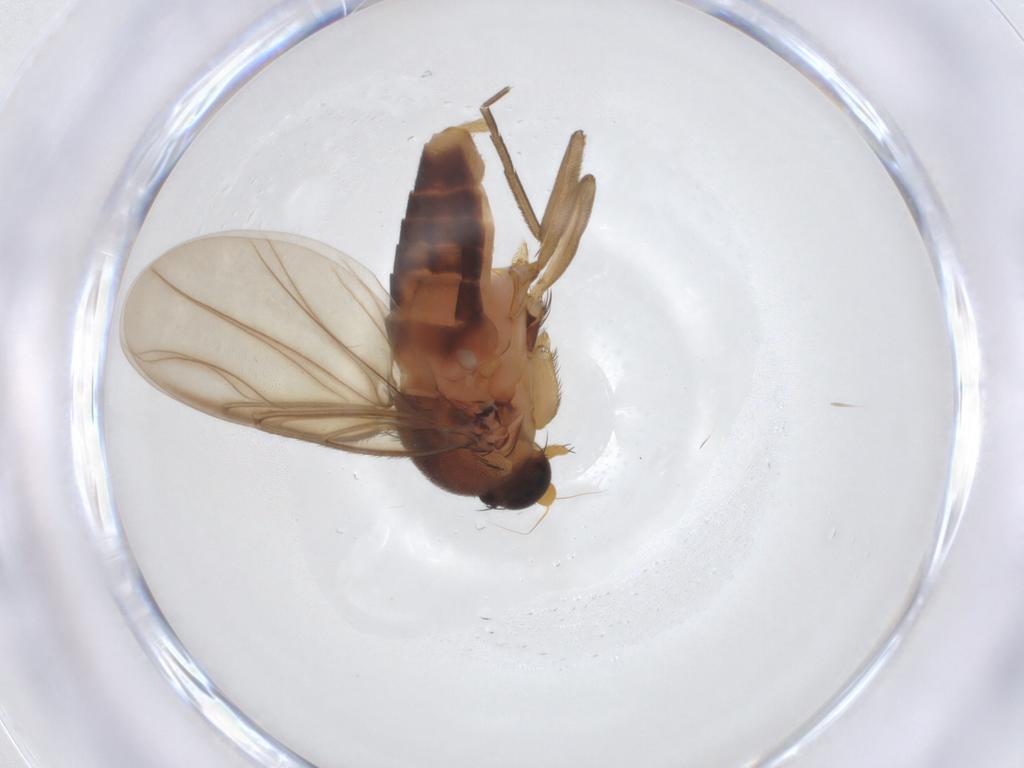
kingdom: Animalia
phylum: Arthropoda
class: Insecta
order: Diptera
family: Phoridae
